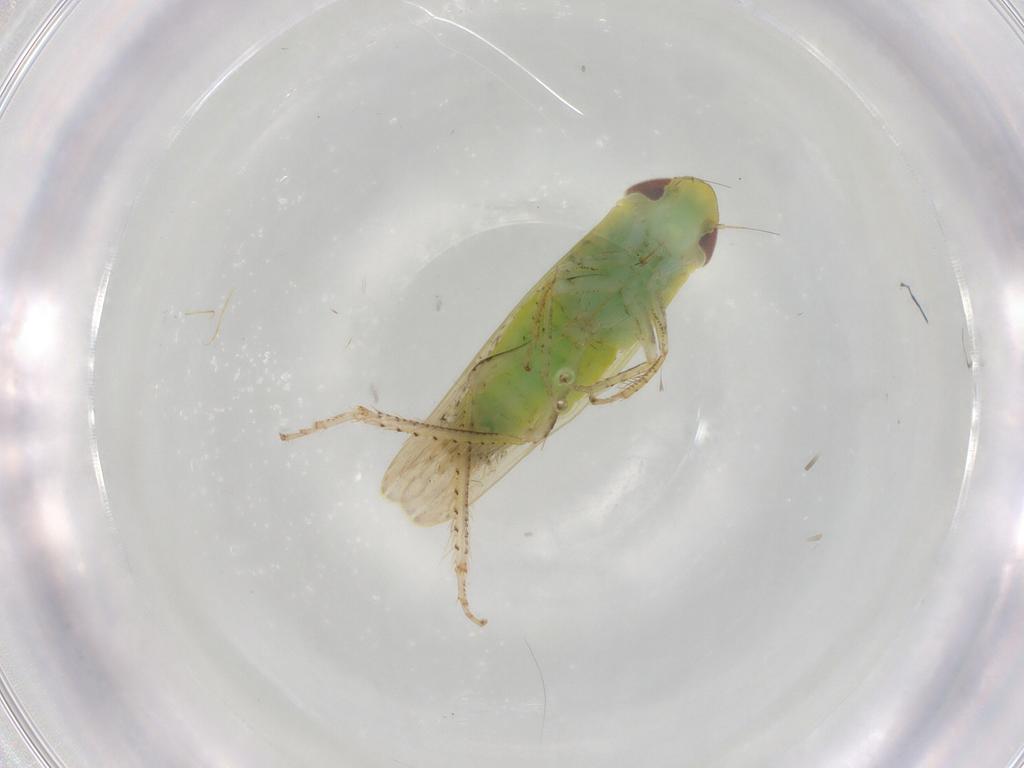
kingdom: Animalia
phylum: Arthropoda
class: Insecta
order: Hemiptera
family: Cicadellidae
